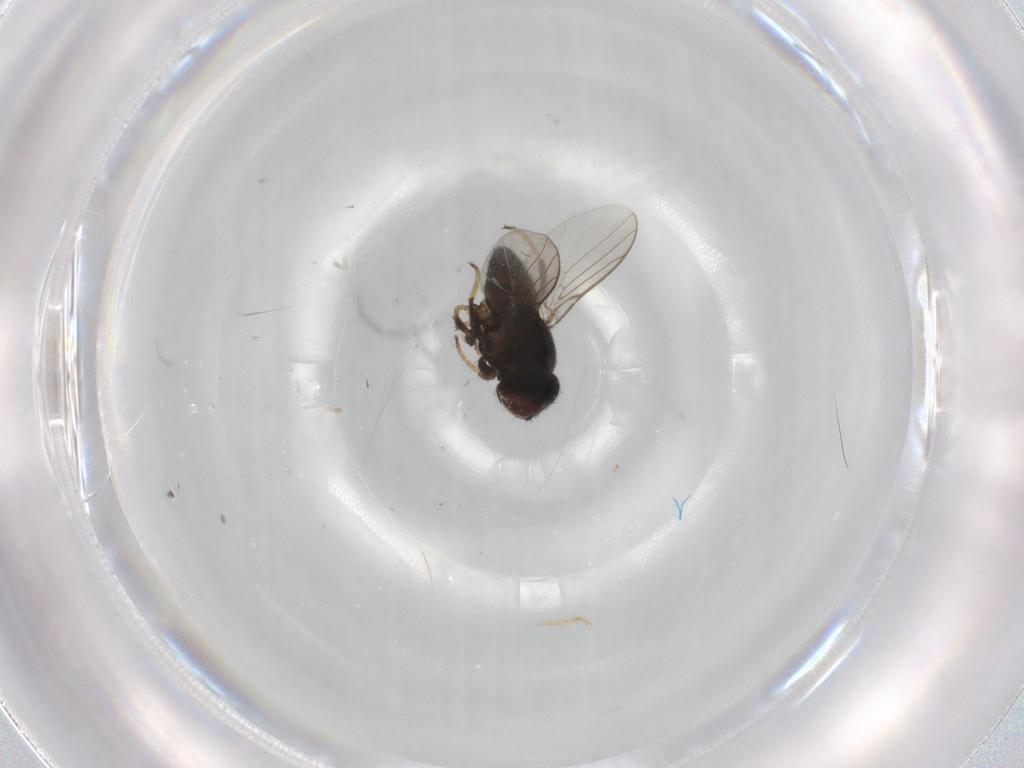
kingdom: Animalia
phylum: Arthropoda
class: Insecta
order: Diptera
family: Chloropidae
